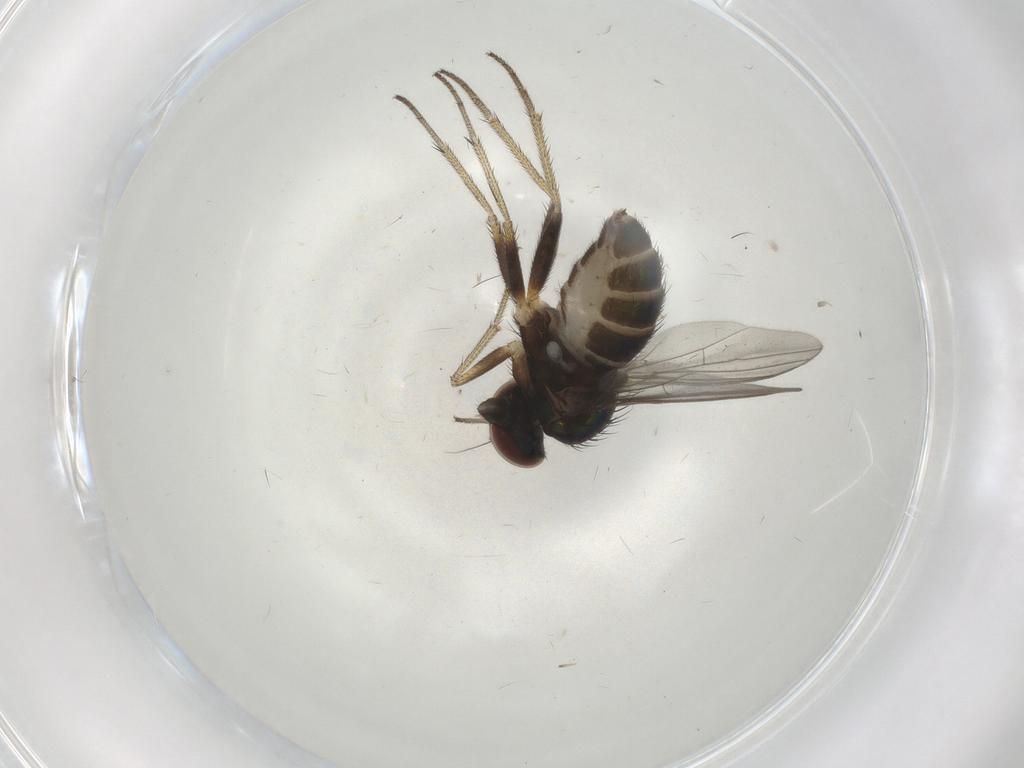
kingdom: Animalia
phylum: Arthropoda
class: Insecta
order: Diptera
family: Dolichopodidae
